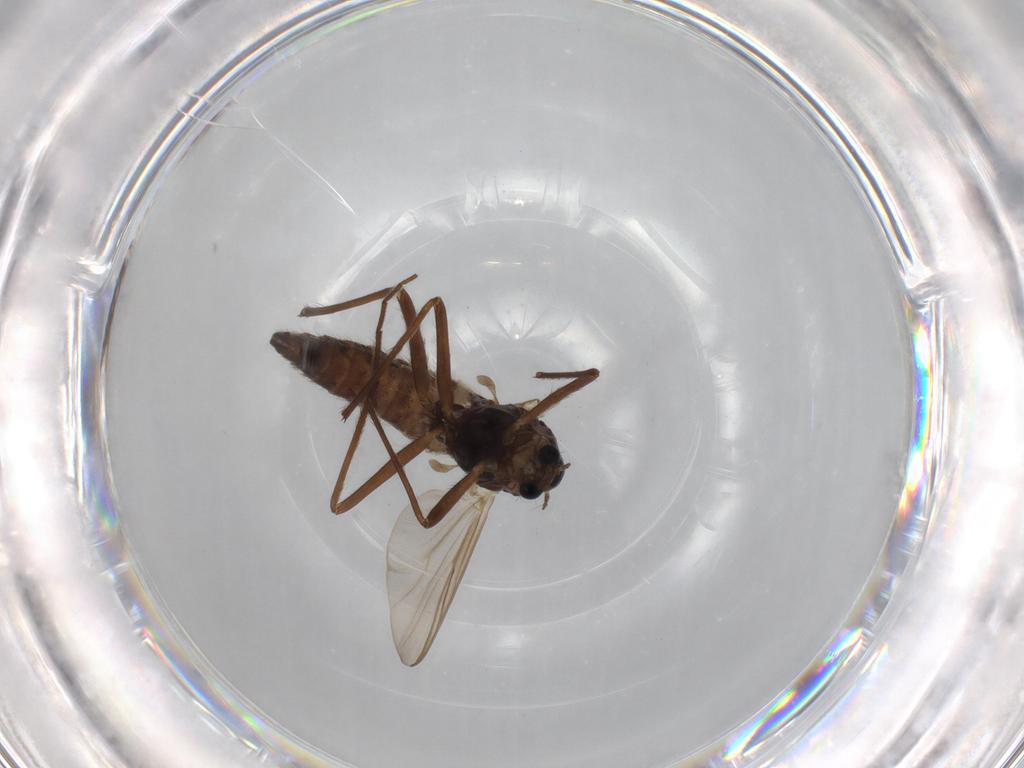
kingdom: Animalia
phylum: Arthropoda
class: Insecta
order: Diptera
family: Chironomidae
